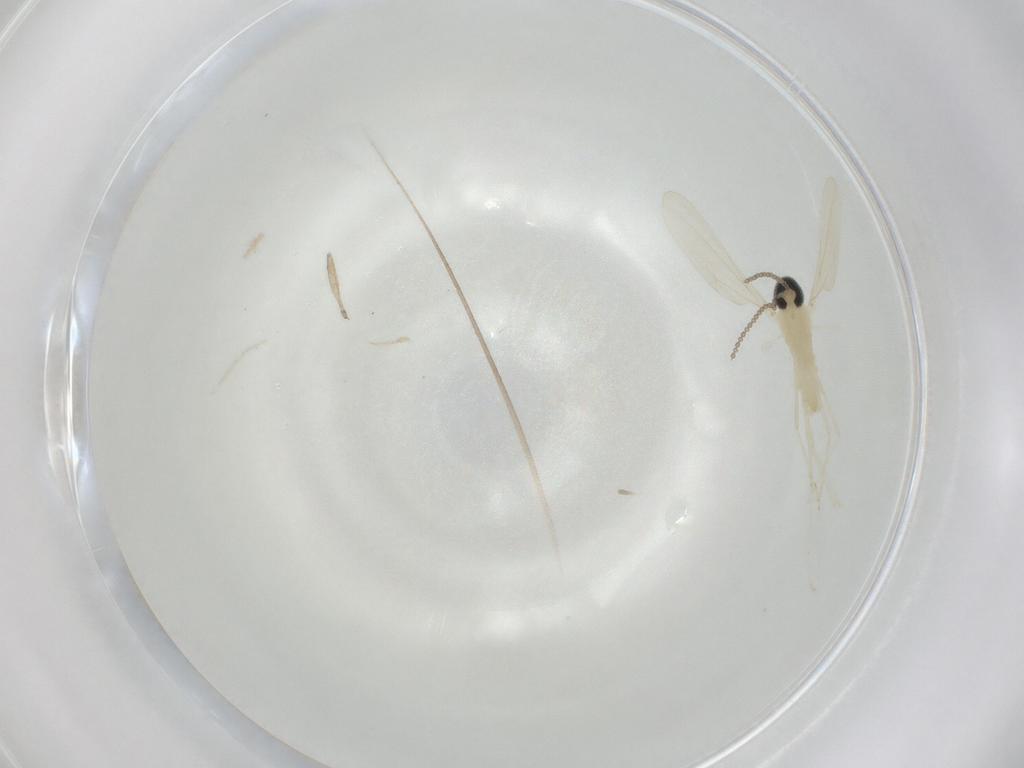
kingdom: Animalia
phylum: Arthropoda
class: Insecta
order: Diptera
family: Cecidomyiidae
